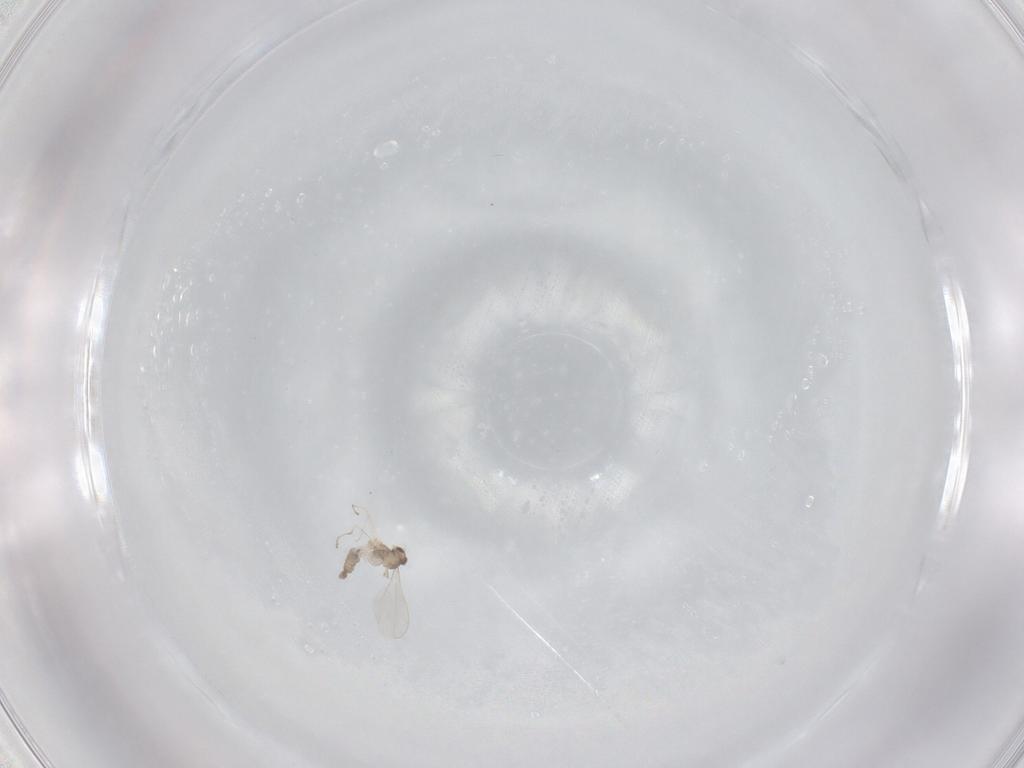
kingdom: Animalia
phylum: Arthropoda
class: Insecta
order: Diptera
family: Cecidomyiidae
